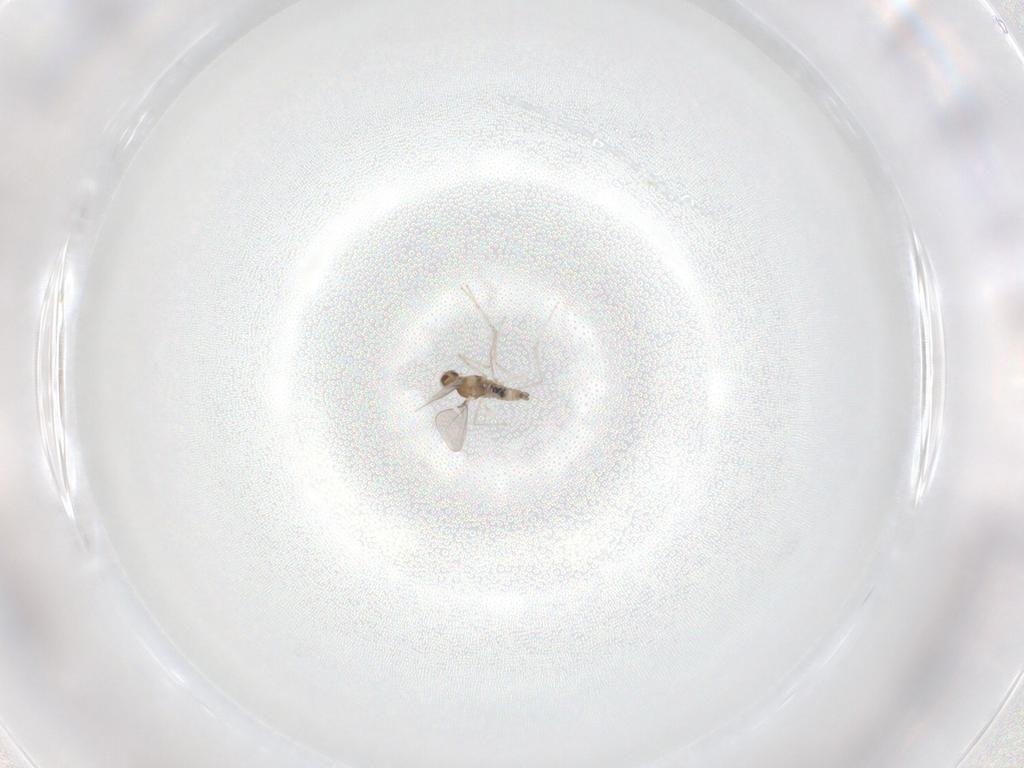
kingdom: Animalia
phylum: Arthropoda
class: Insecta
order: Diptera
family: Cecidomyiidae
